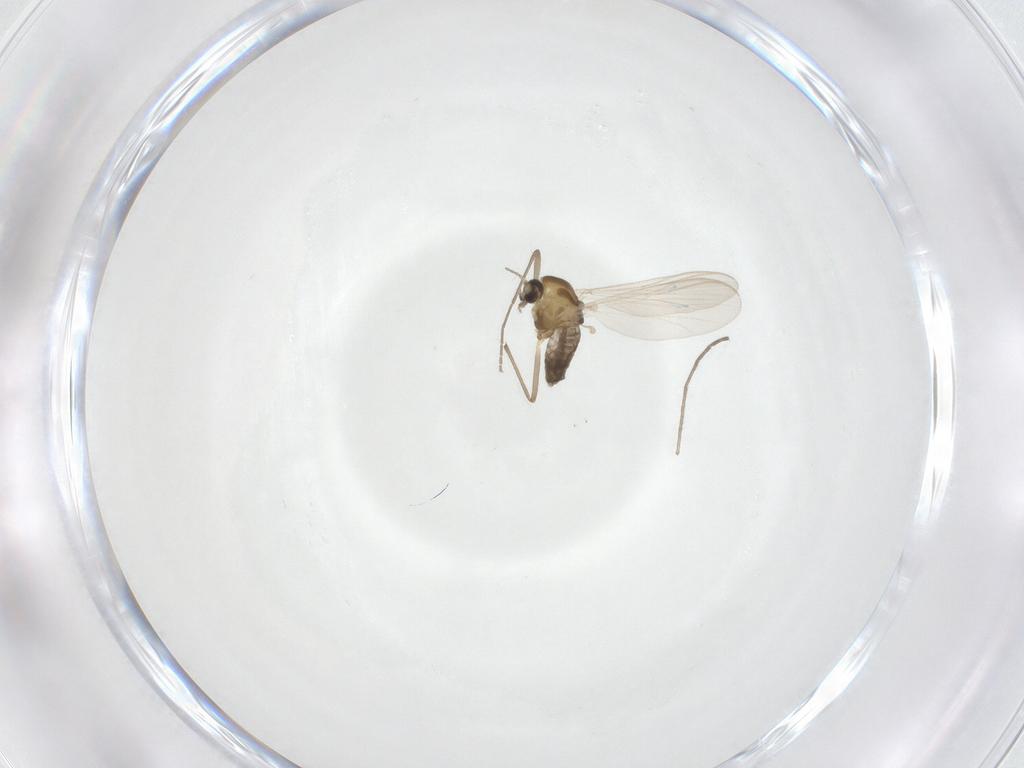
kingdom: Animalia
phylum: Arthropoda
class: Insecta
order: Diptera
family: Chironomidae
